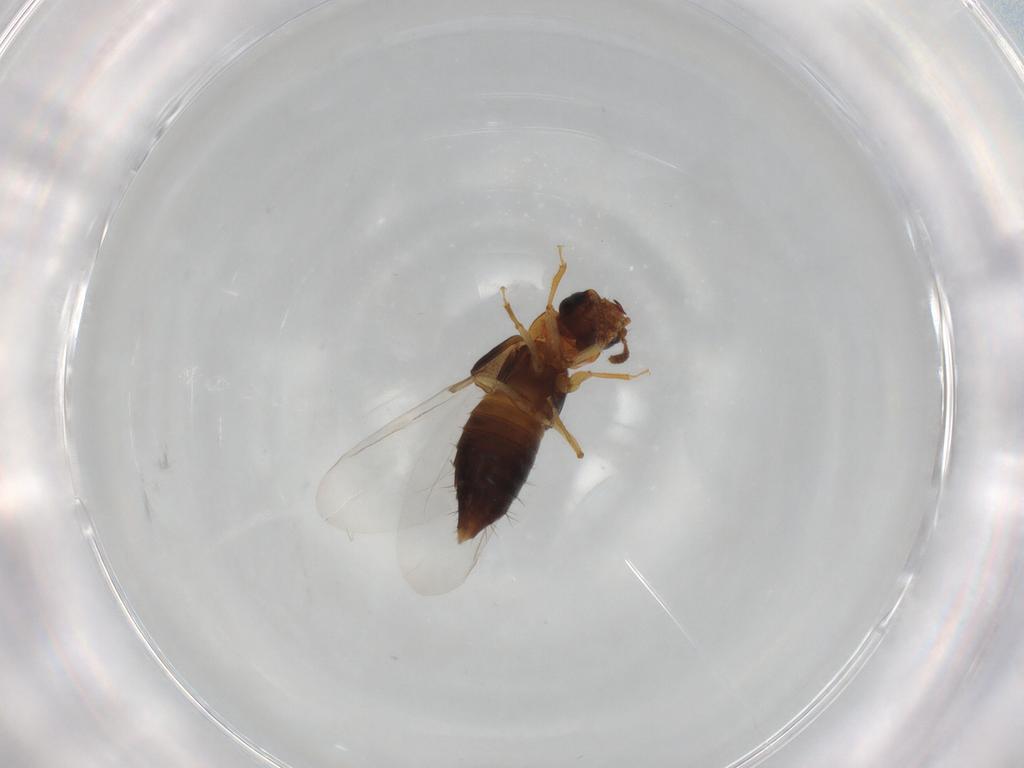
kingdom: Animalia
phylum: Arthropoda
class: Insecta
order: Coleoptera
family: Staphylinidae
